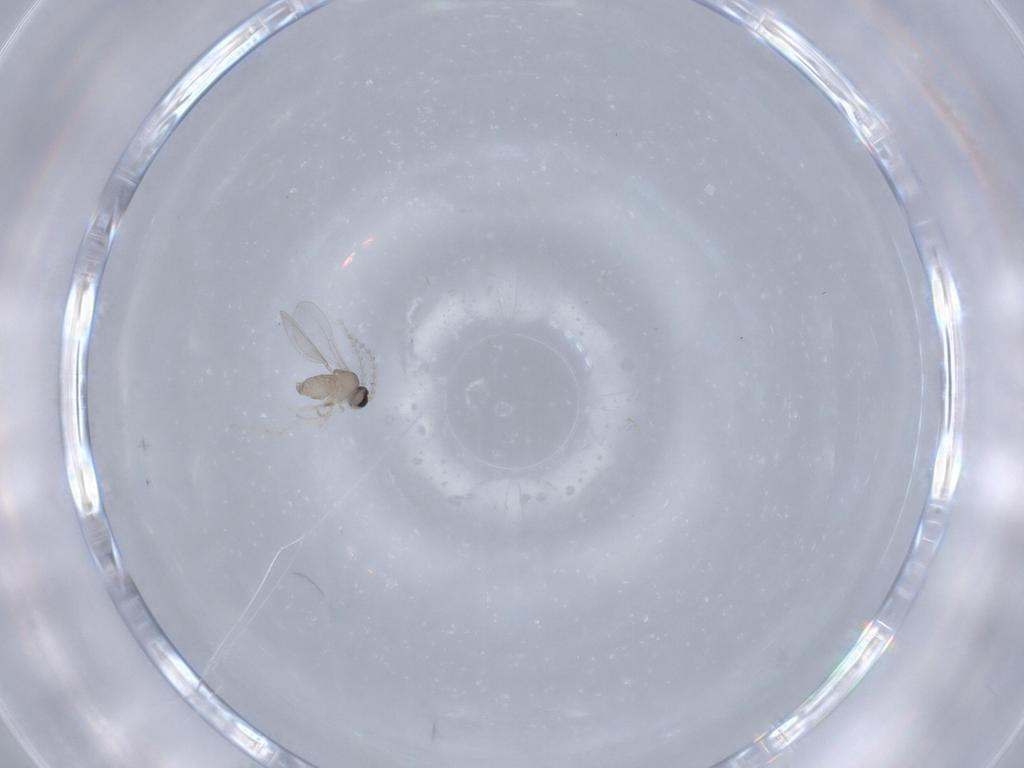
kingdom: Animalia
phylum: Arthropoda
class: Insecta
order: Diptera
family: Cecidomyiidae
